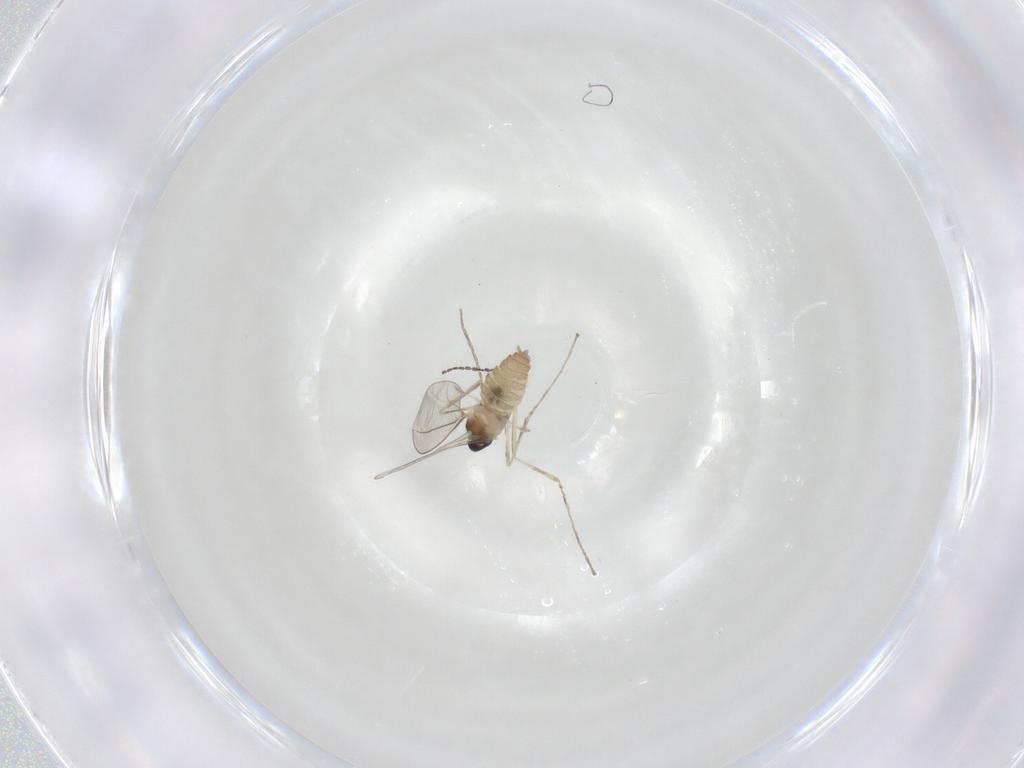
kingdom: Animalia
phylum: Arthropoda
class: Insecta
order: Diptera
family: Cecidomyiidae
